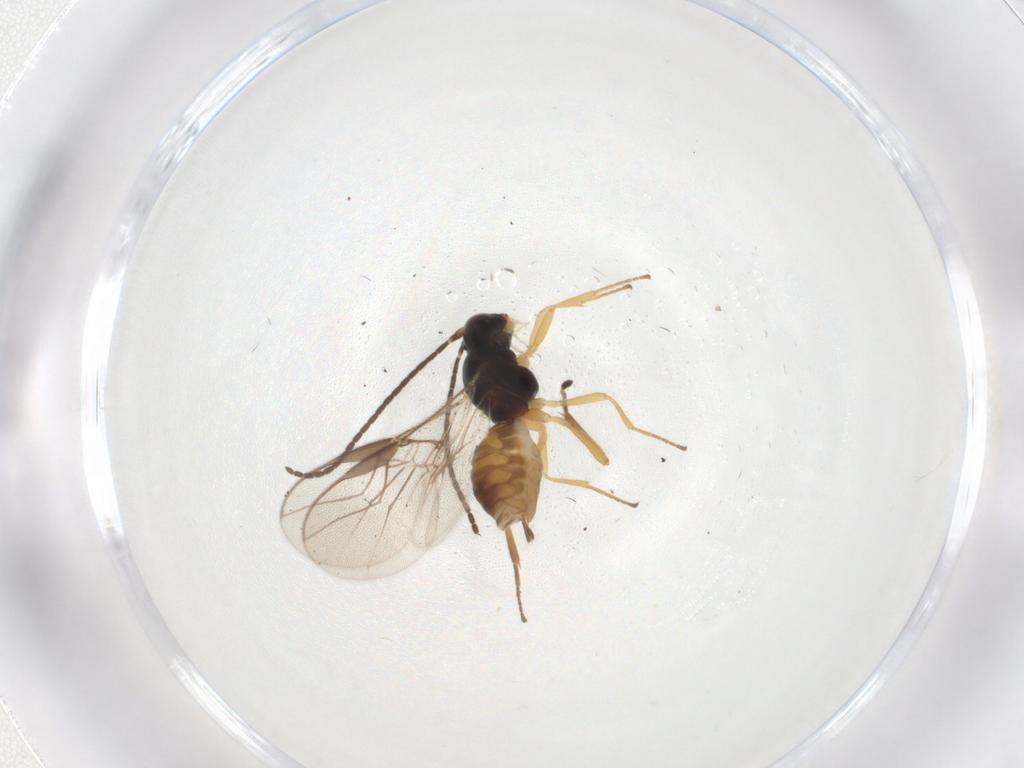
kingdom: Animalia
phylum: Arthropoda
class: Insecta
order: Hymenoptera
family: Braconidae
